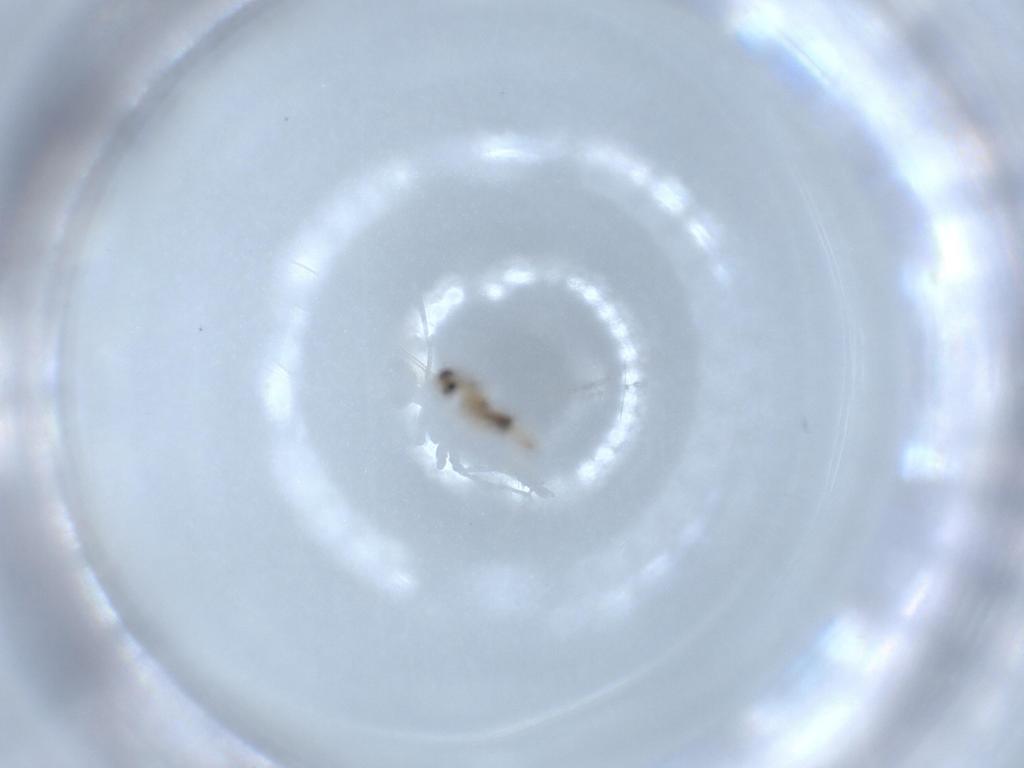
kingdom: Animalia
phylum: Arthropoda
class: Insecta
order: Diptera
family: Cecidomyiidae
